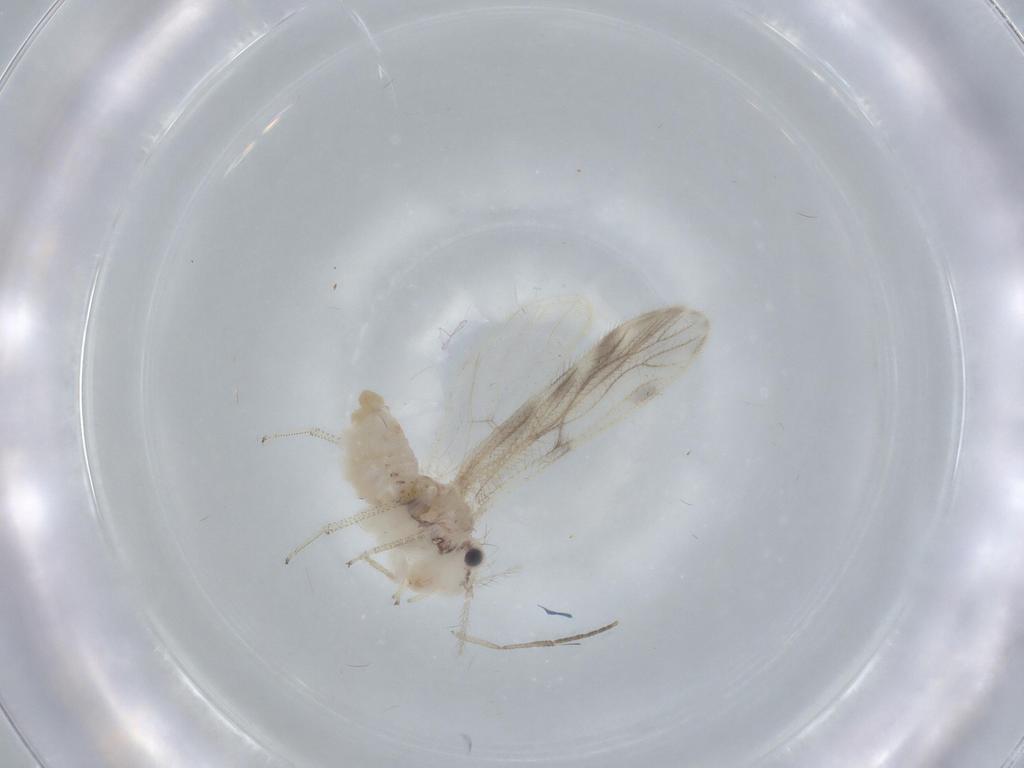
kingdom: Animalia
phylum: Arthropoda
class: Insecta
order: Psocodea
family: Pseudocaeciliidae
